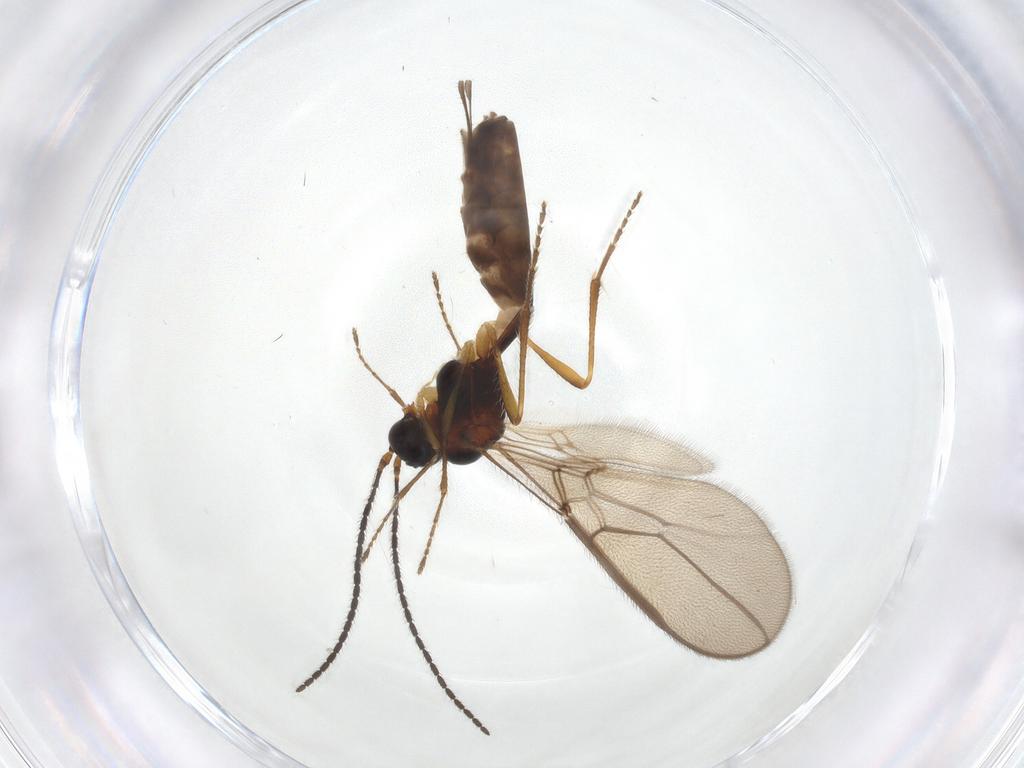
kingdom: Animalia
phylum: Arthropoda
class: Insecta
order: Hymenoptera
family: Braconidae
